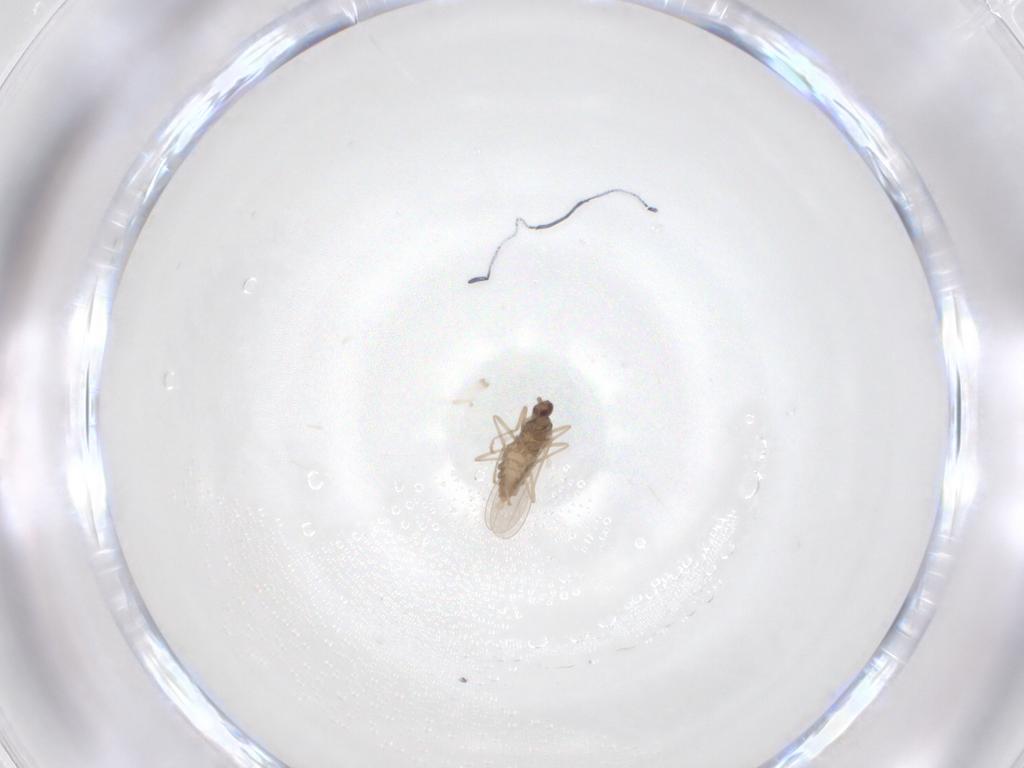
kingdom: Animalia
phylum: Arthropoda
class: Insecta
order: Diptera
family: Cecidomyiidae
